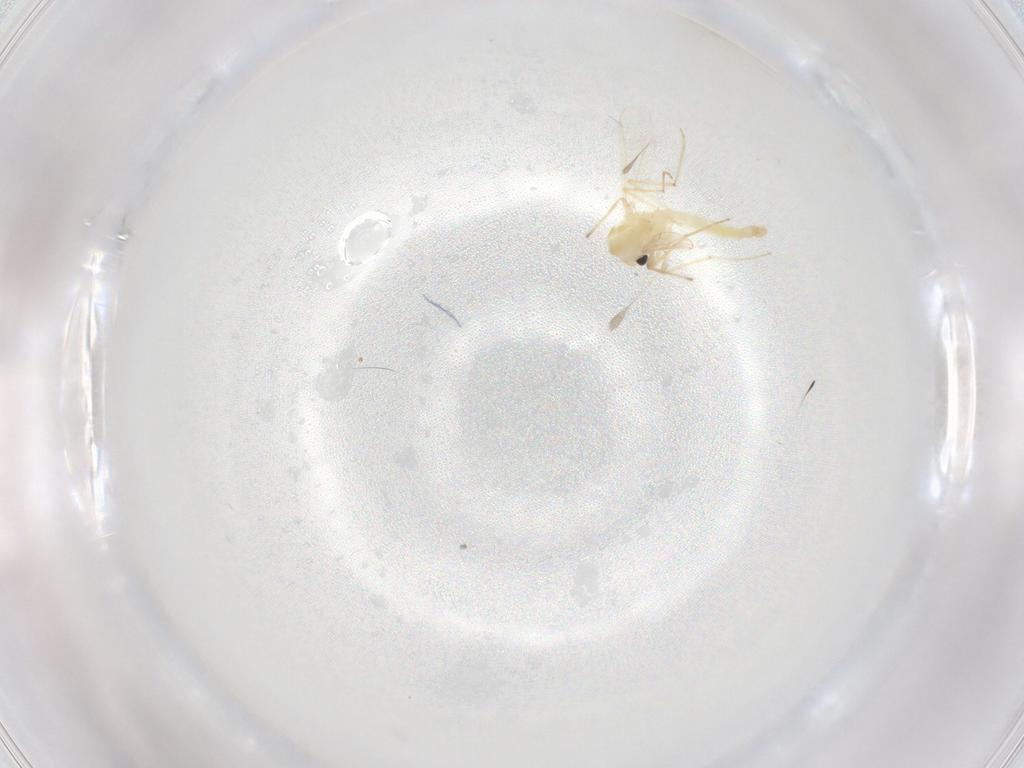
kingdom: Animalia
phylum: Arthropoda
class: Insecta
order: Diptera
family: Chironomidae
